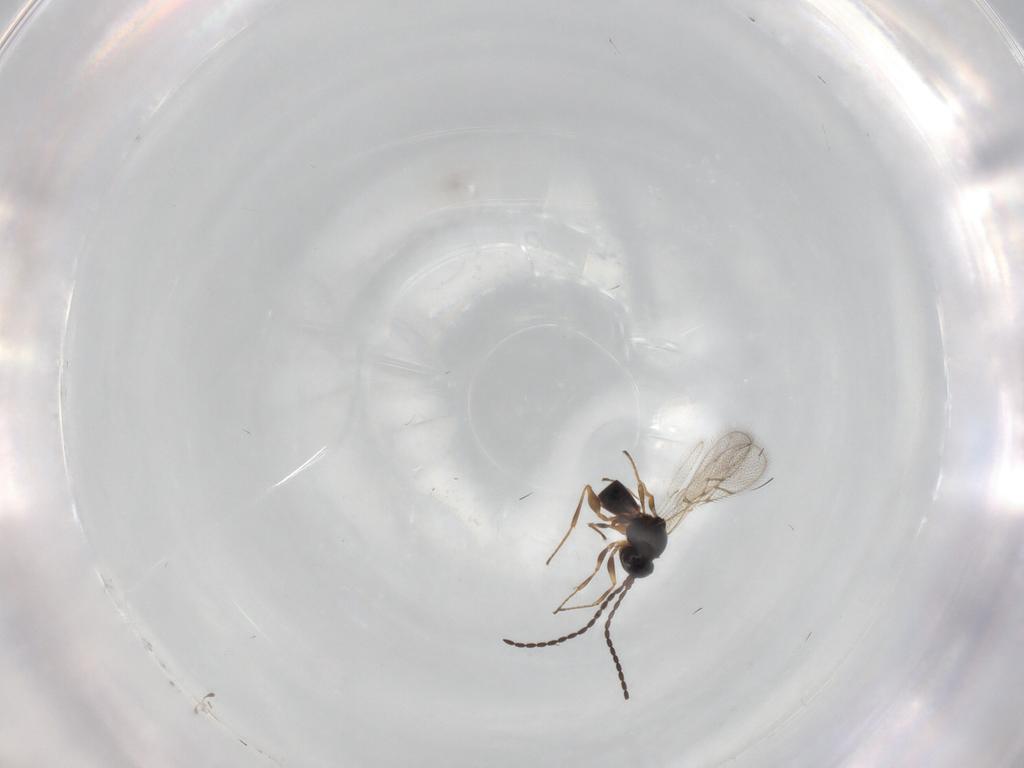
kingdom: Animalia
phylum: Arthropoda
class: Insecta
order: Hymenoptera
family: Figitidae
